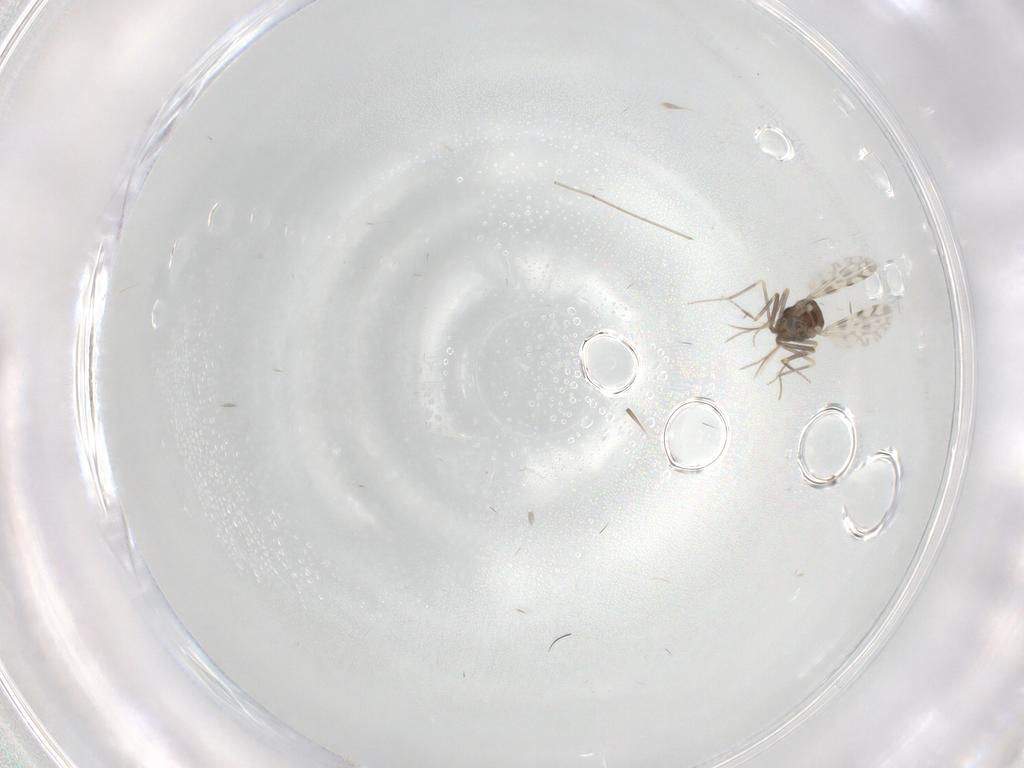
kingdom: Animalia
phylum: Arthropoda
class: Insecta
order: Diptera
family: Ceratopogonidae
